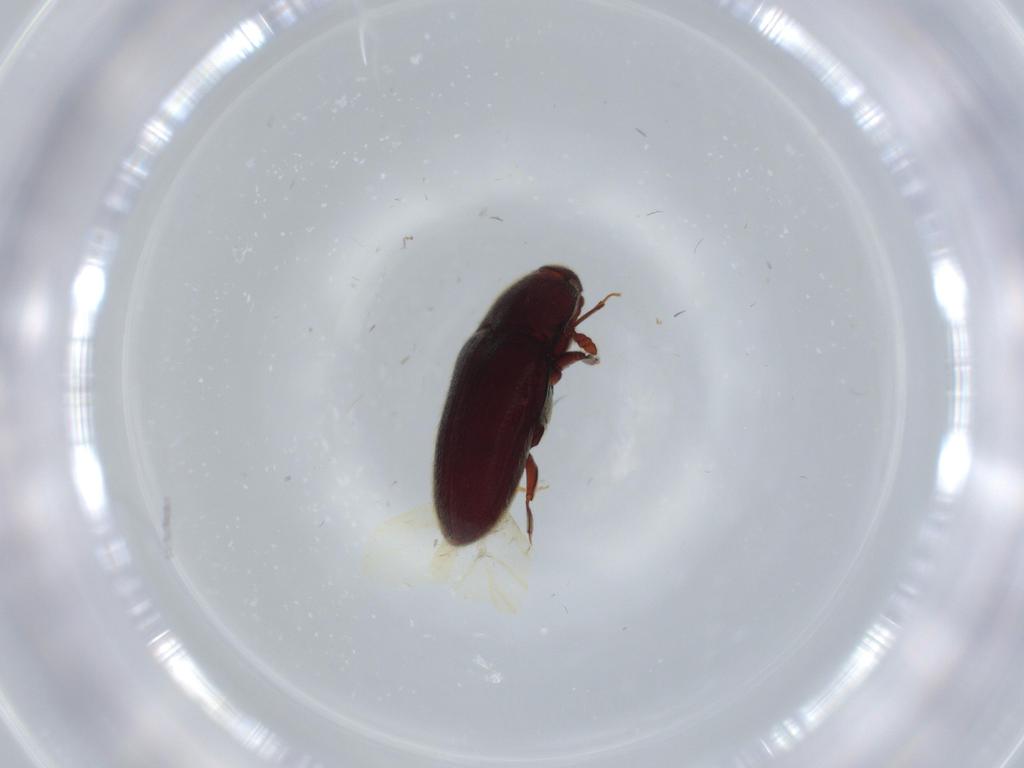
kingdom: Animalia
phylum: Arthropoda
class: Insecta
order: Coleoptera
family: Throscidae
